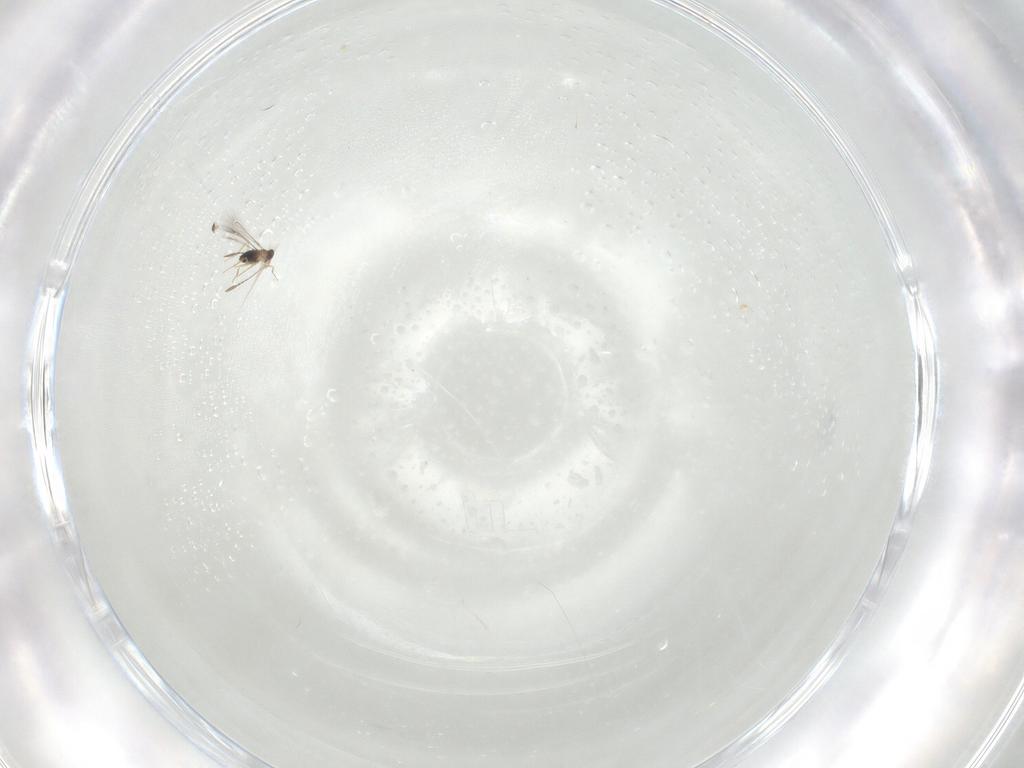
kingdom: Animalia
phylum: Arthropoda
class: Insecta
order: Hymenoptera
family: Mymaridae
